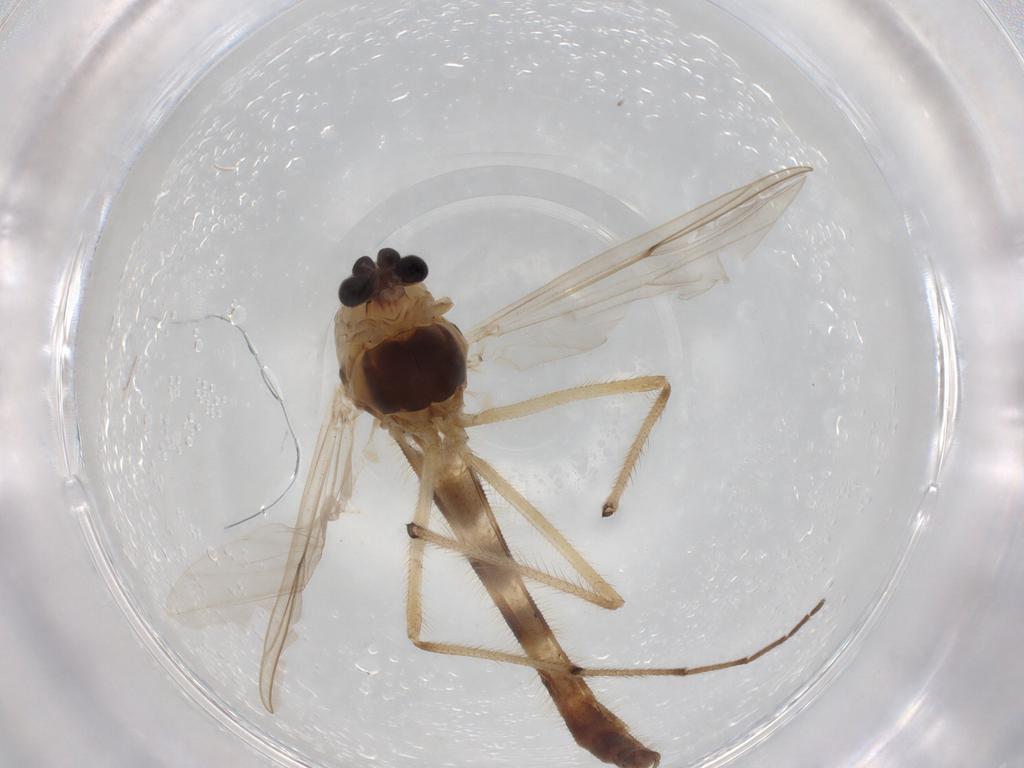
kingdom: Animalia
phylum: Arthropoda
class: Insecta
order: Diptera
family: Chironomidae
